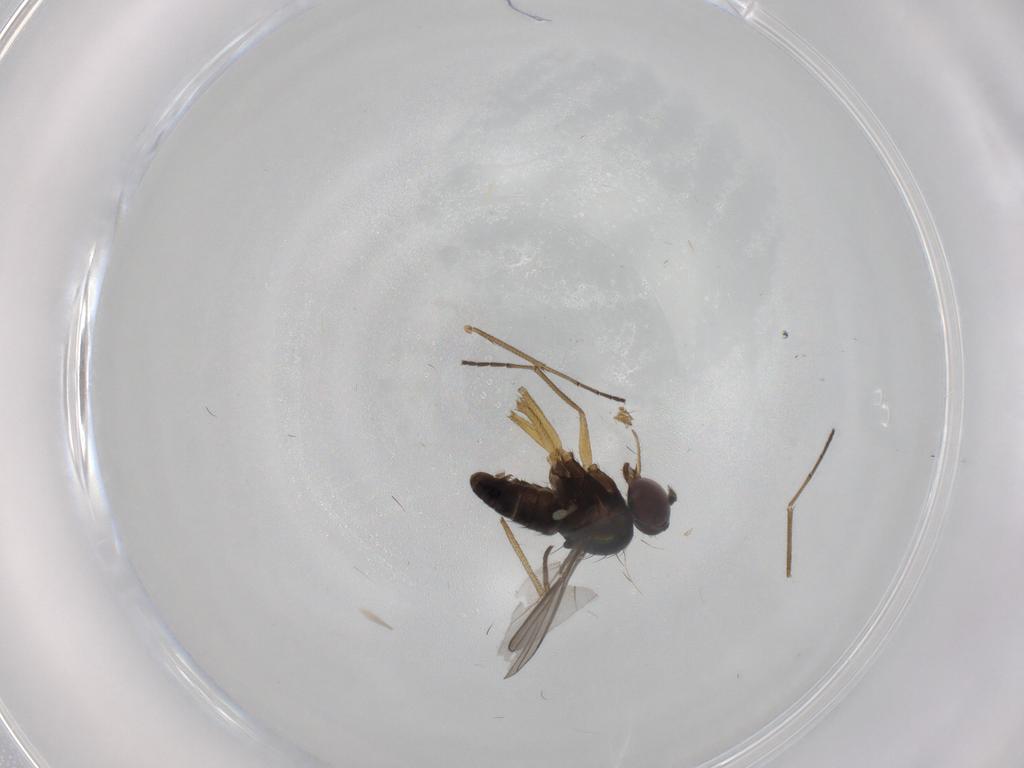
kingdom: Animalia
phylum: Arthropoda
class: Insecta
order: Diptera
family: Dolichopodidae
